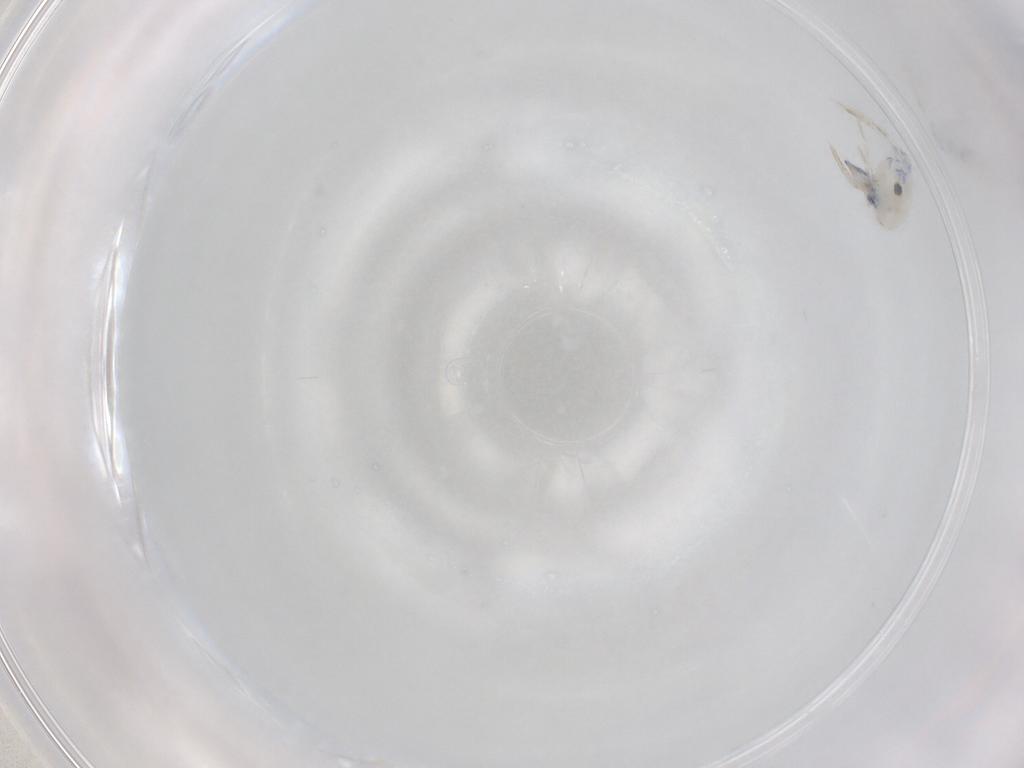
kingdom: Animalia
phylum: Arthropoda
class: Collembola
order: Entomobryomorpha
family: Entomobryidae
